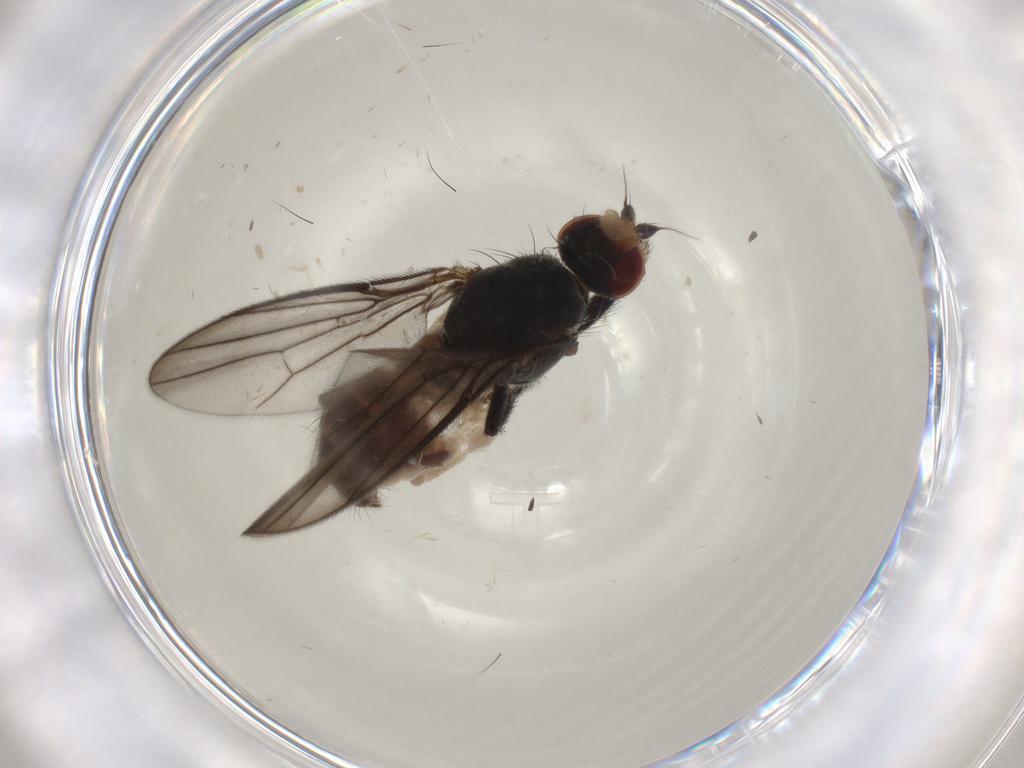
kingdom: Animalia
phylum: Arthropoda
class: Insecta
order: Diptera
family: Chloropidae
